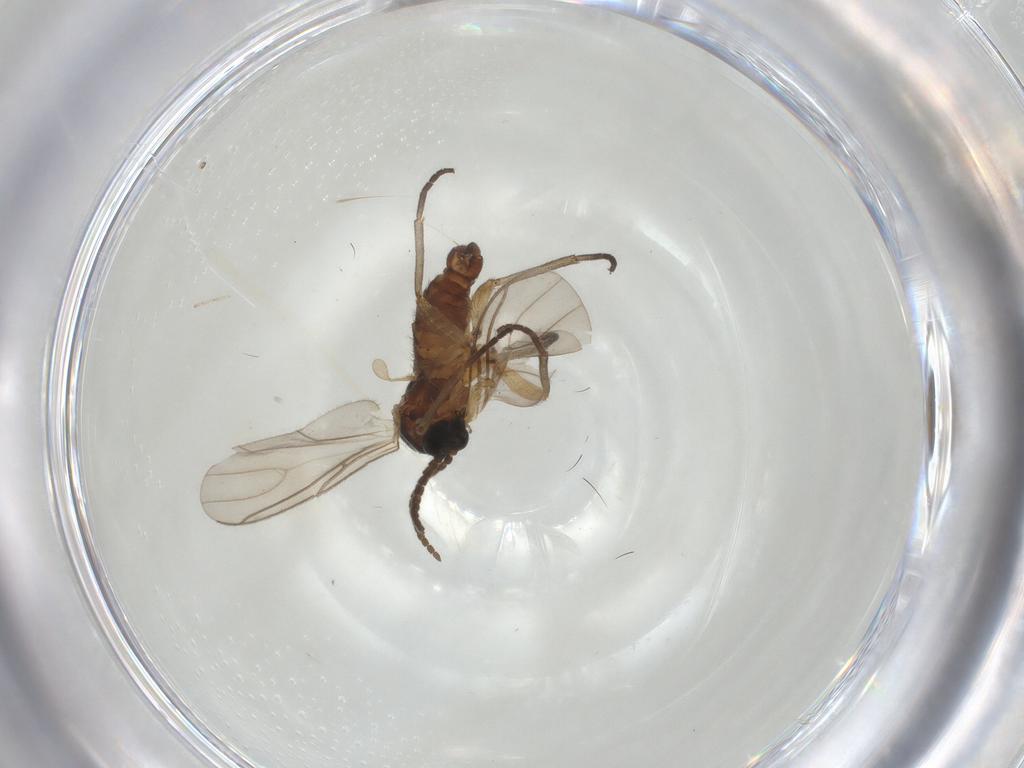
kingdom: Animalia
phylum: Arthropoda
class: Insecta
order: Diptera
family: Sciaridae
